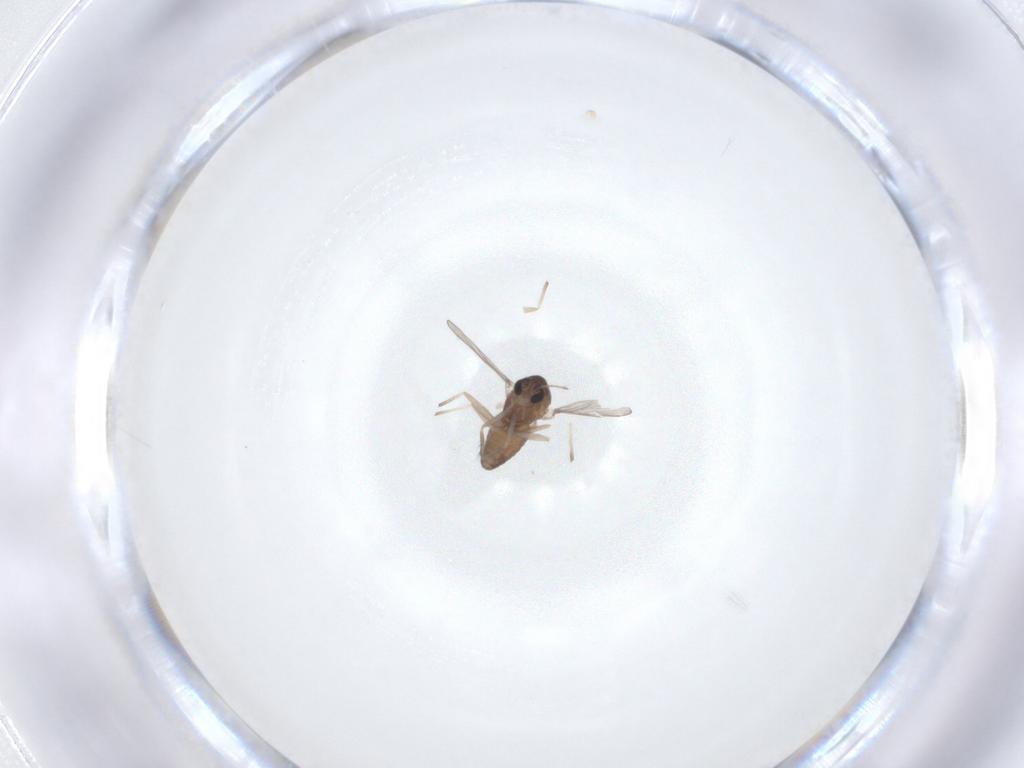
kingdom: Animalia
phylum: Arthropoda
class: Insecta
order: Diptera
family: Chironomidae
